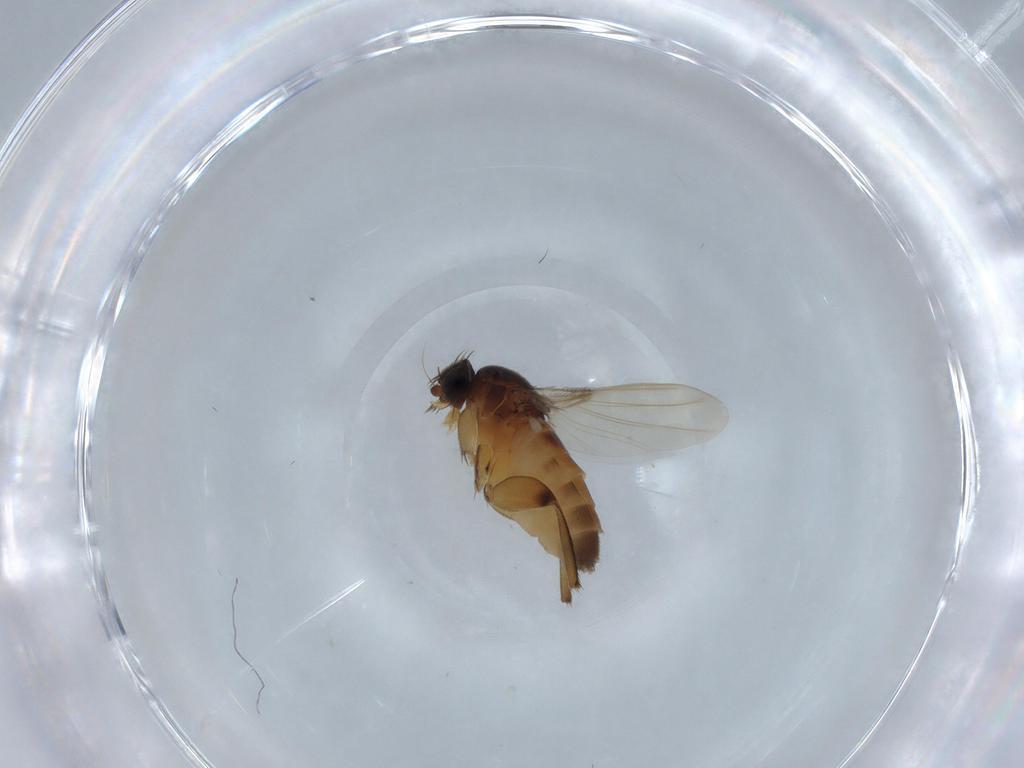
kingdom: Animalia
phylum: Arthropoda
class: Insecta
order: Diptera
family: Phoridae
